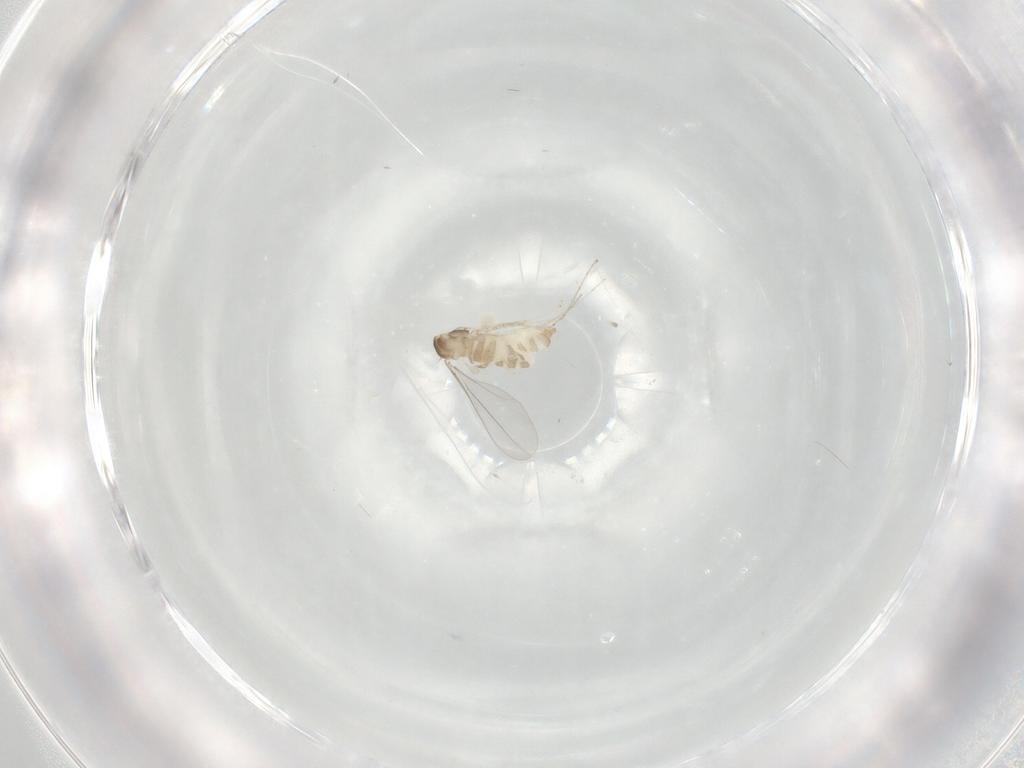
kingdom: Animalia
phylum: Arthropoda
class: Insecta
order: Diptera
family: Cecidomyiidae
